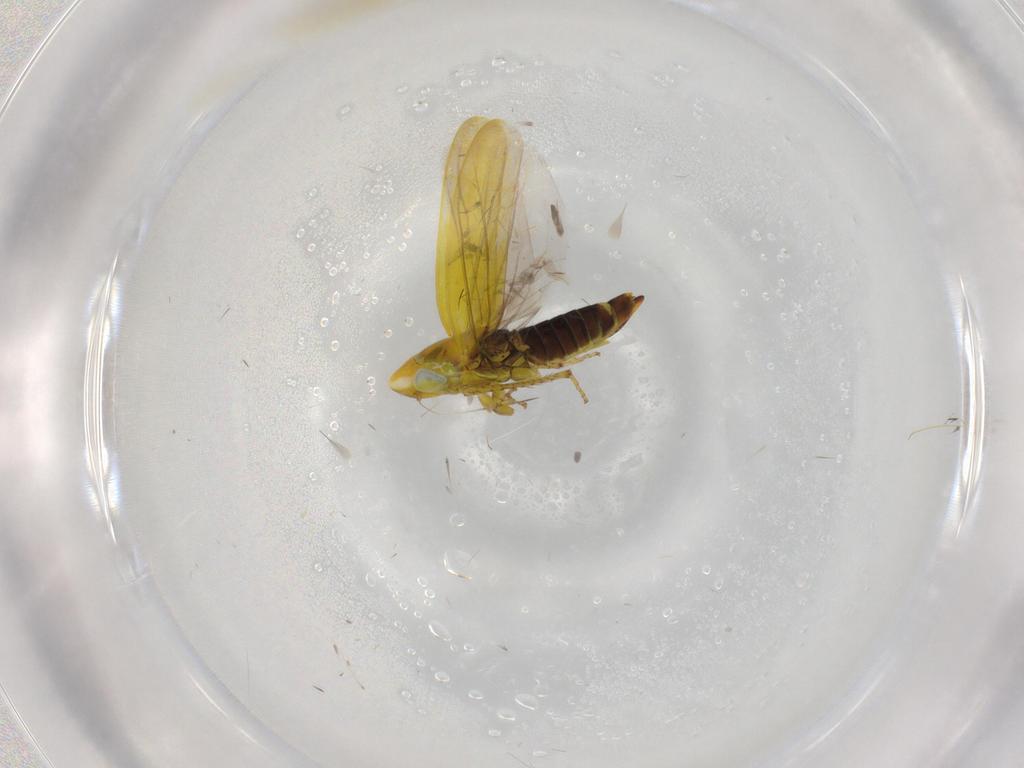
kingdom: Animalia
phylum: Arthropoda
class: Insecta
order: Hemiptera
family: Cicadellidae
